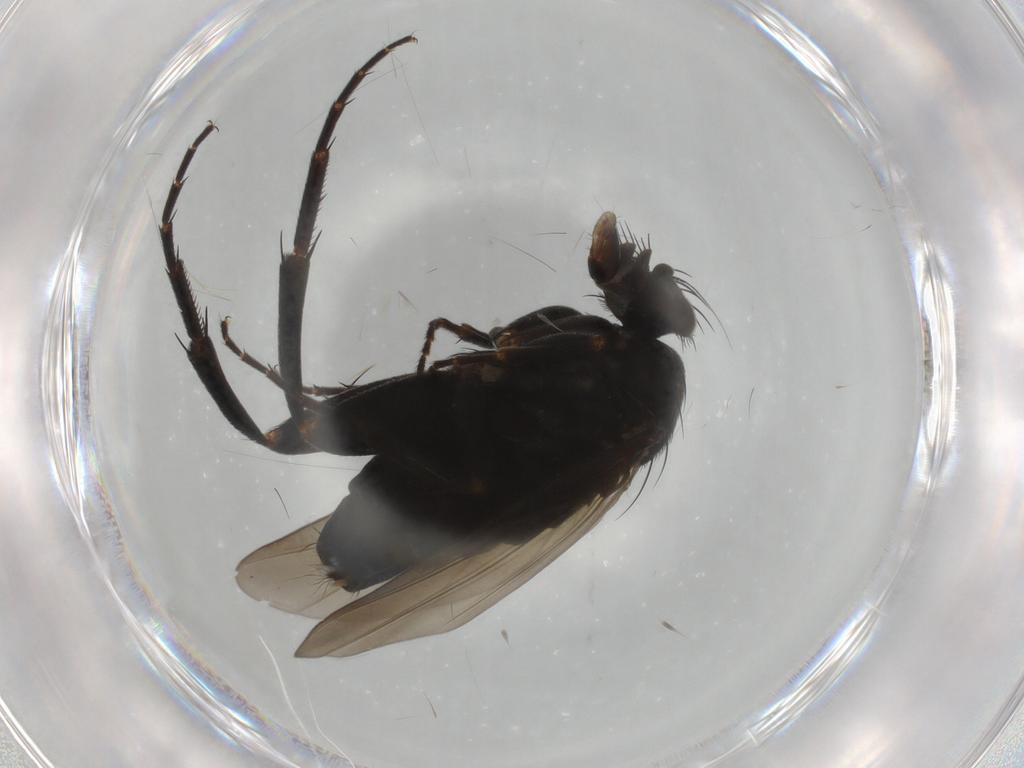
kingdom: Animalia
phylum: Arthropoda
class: Insecta
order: Diptera
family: Phoridae
